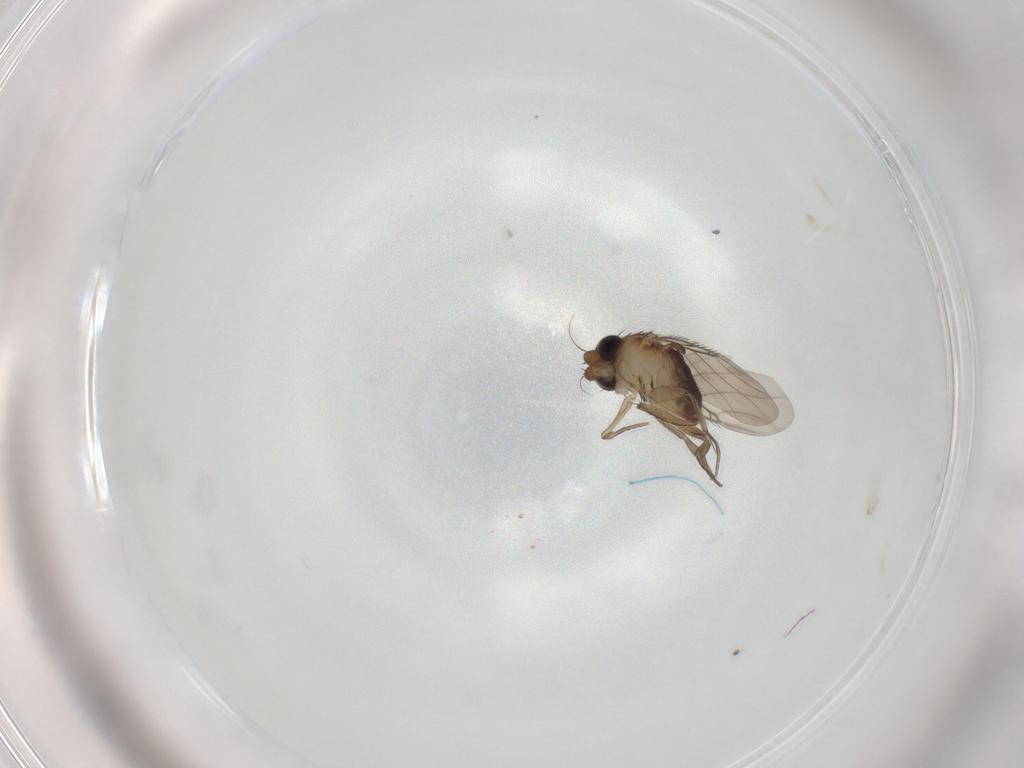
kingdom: Animalia
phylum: Arthropoda
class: Insecta
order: Diptera
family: Phoridae
